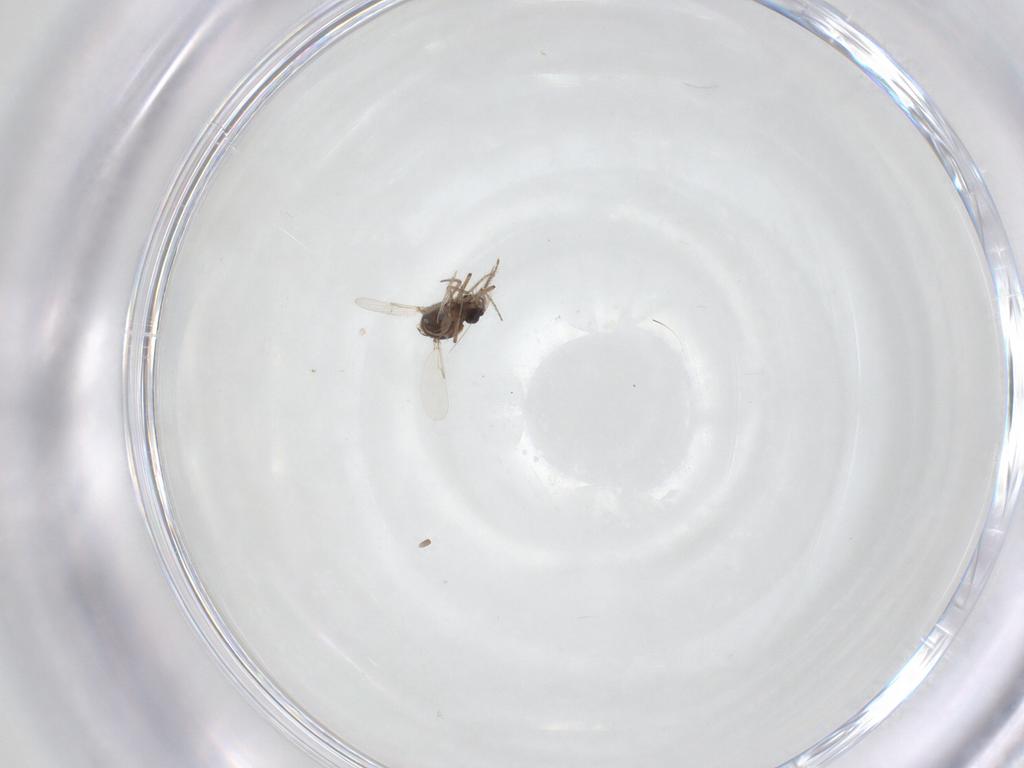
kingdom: Animalia
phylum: Arthropoda
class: Insecta
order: Diptera
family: Ceratopogonidae
